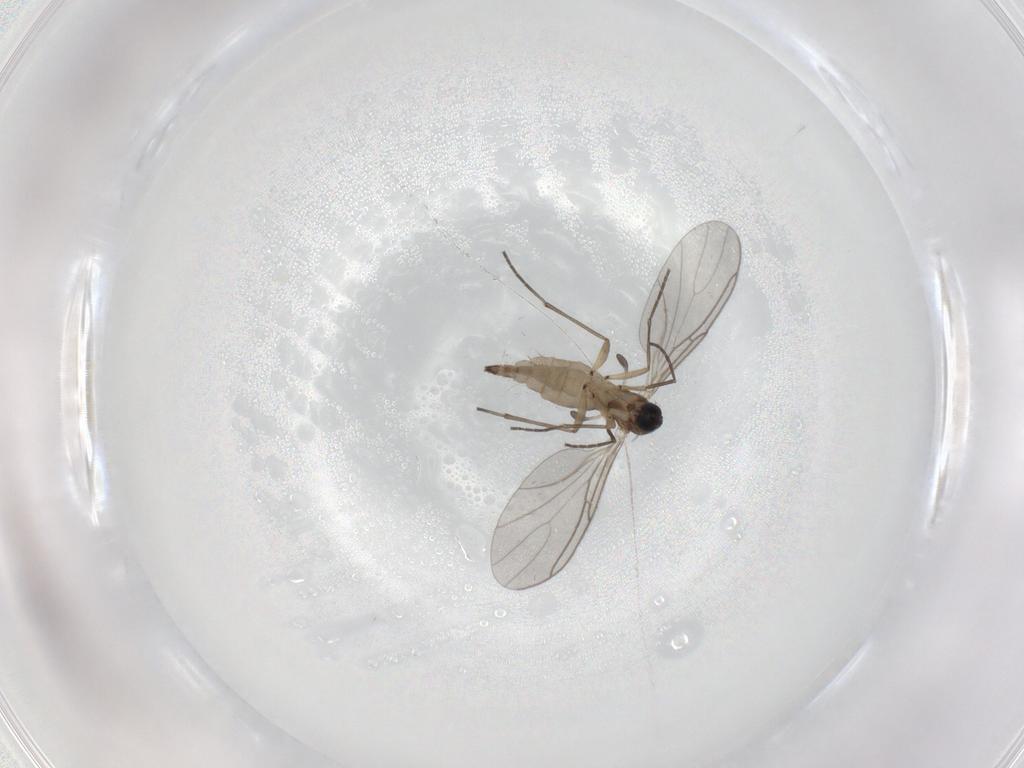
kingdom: Animalia
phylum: Arthropoda
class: Insecta
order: Diptera
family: Sciaridae
